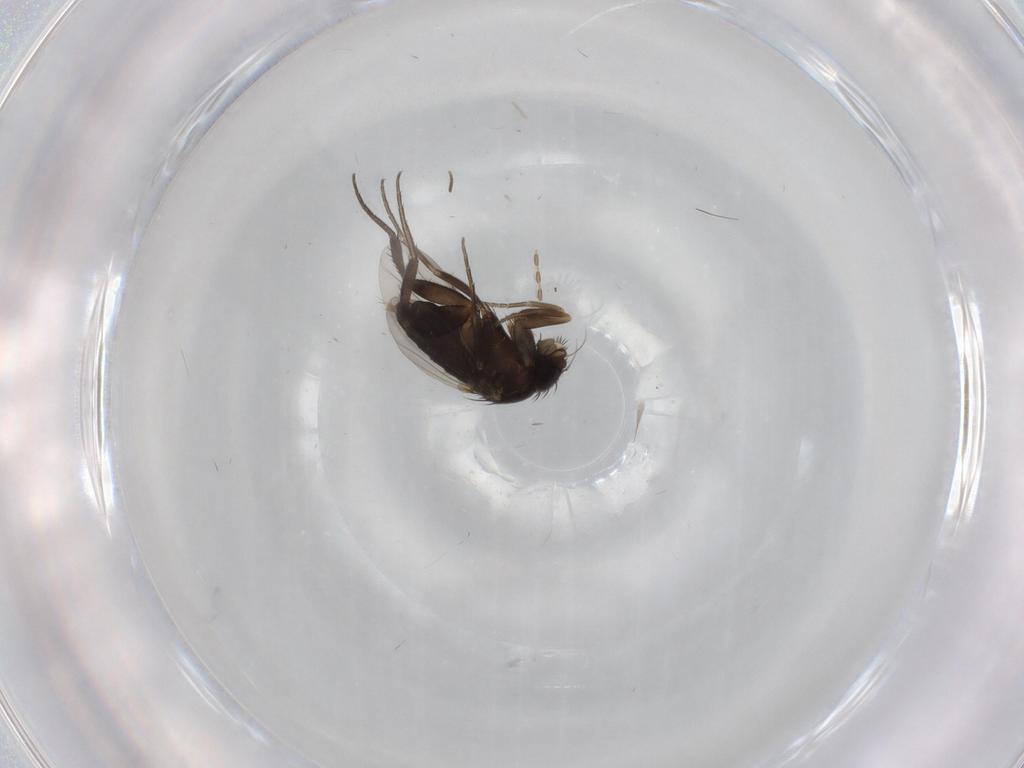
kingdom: Animalia
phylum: Arthropoda
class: Insecta
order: Diptera
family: Phoridae
